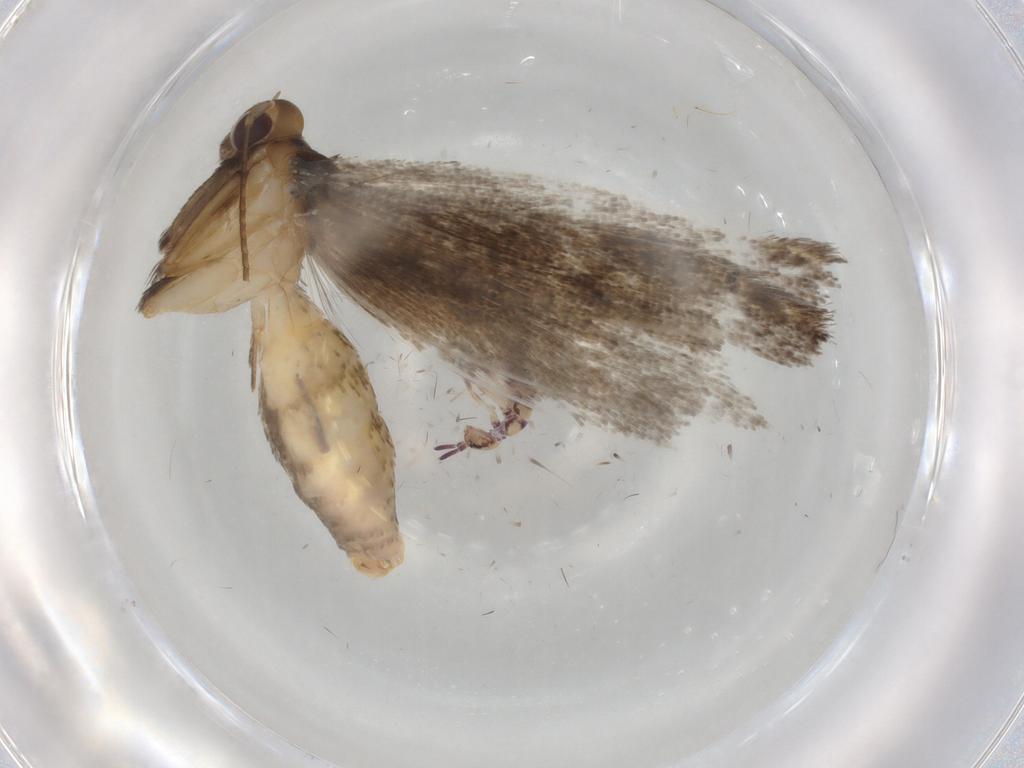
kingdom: Animalia
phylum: Arthropoda
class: Insecta
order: Lepidoptera
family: Epermeniidae
